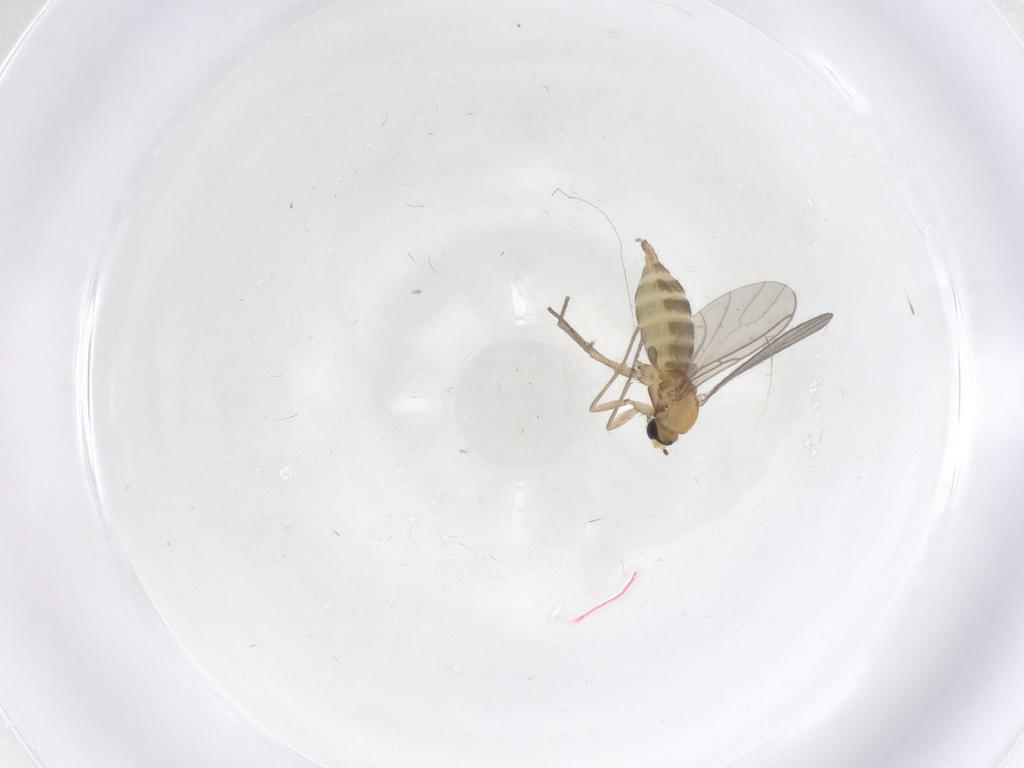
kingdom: Animalia
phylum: Arthropoda
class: Insecta
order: Diptera
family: Sciaridae
